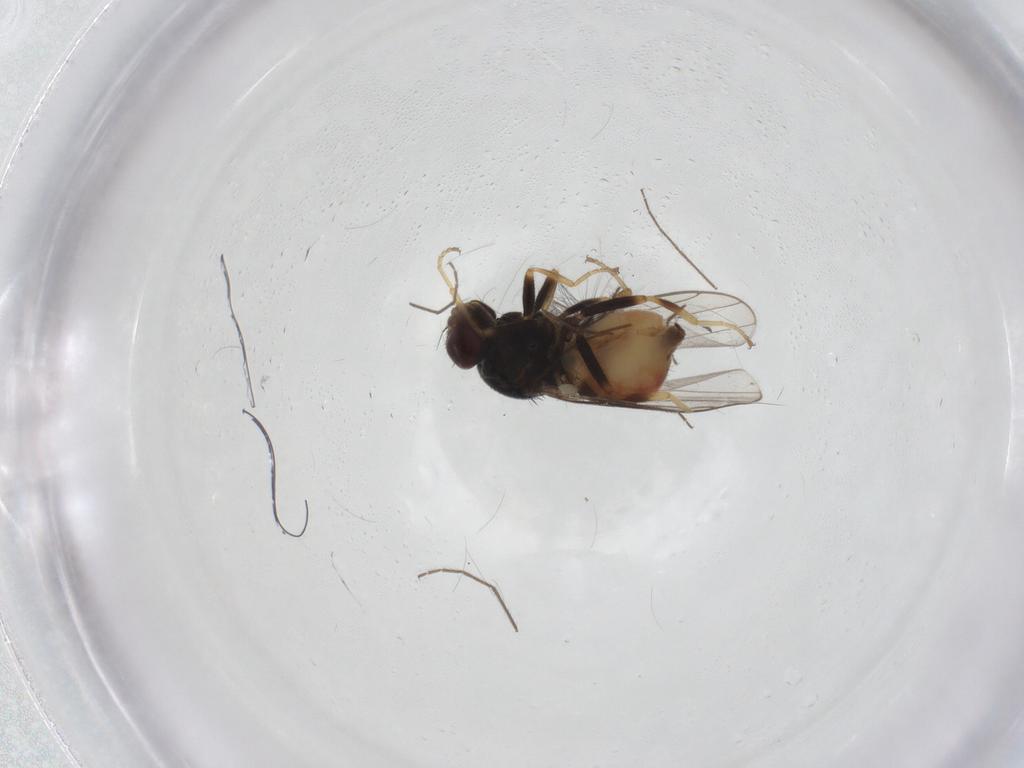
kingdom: Animalia
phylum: Arthropoda
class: Insecta
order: Diptera
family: Chloropidae
